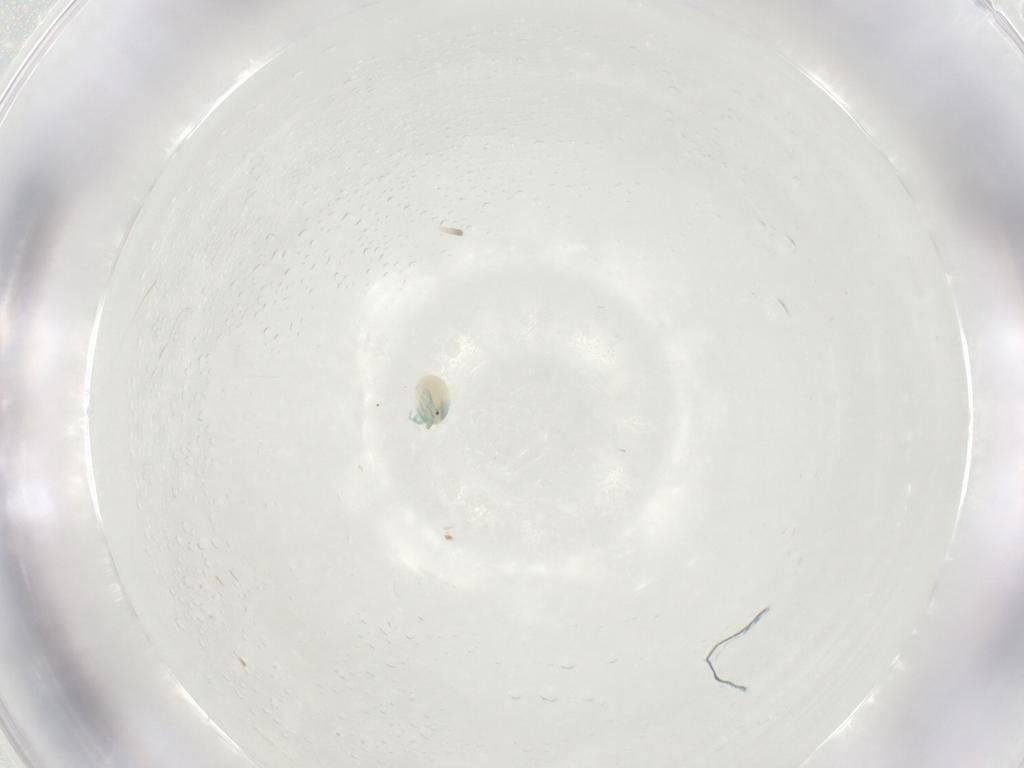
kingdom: Animalia
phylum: Arthropoda
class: Arachnida
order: Trombidiformes
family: Arrenuridae
